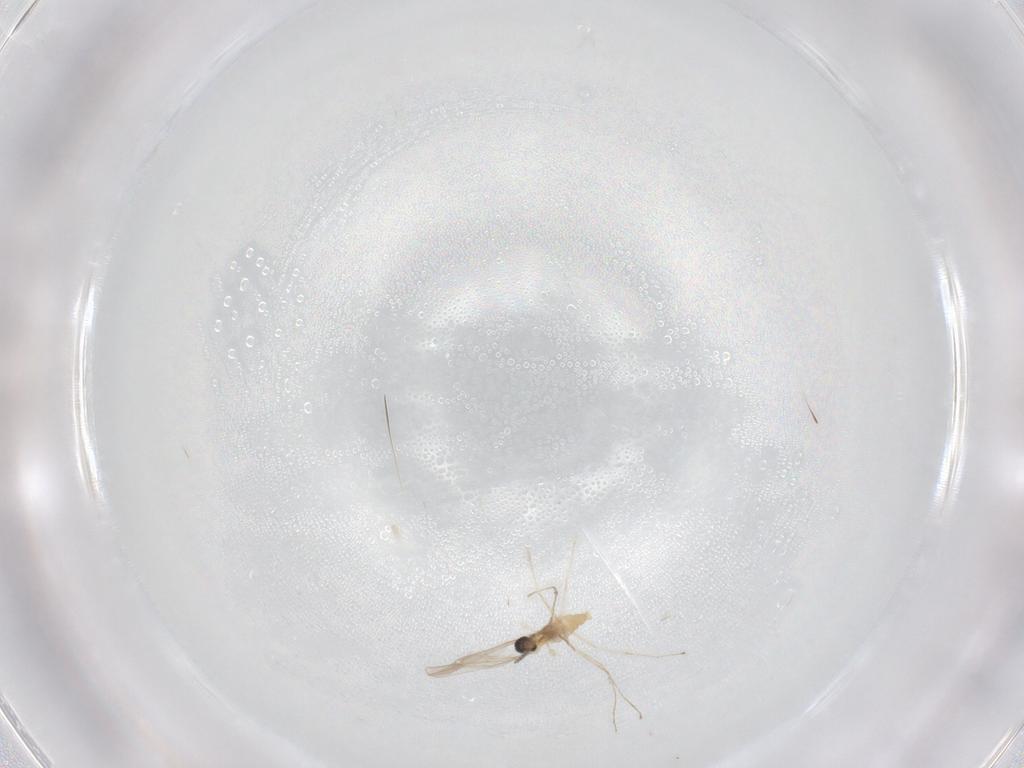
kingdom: Animalia
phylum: Arthropoda
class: Insecta
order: Diptera
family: Cecidomyiidae
